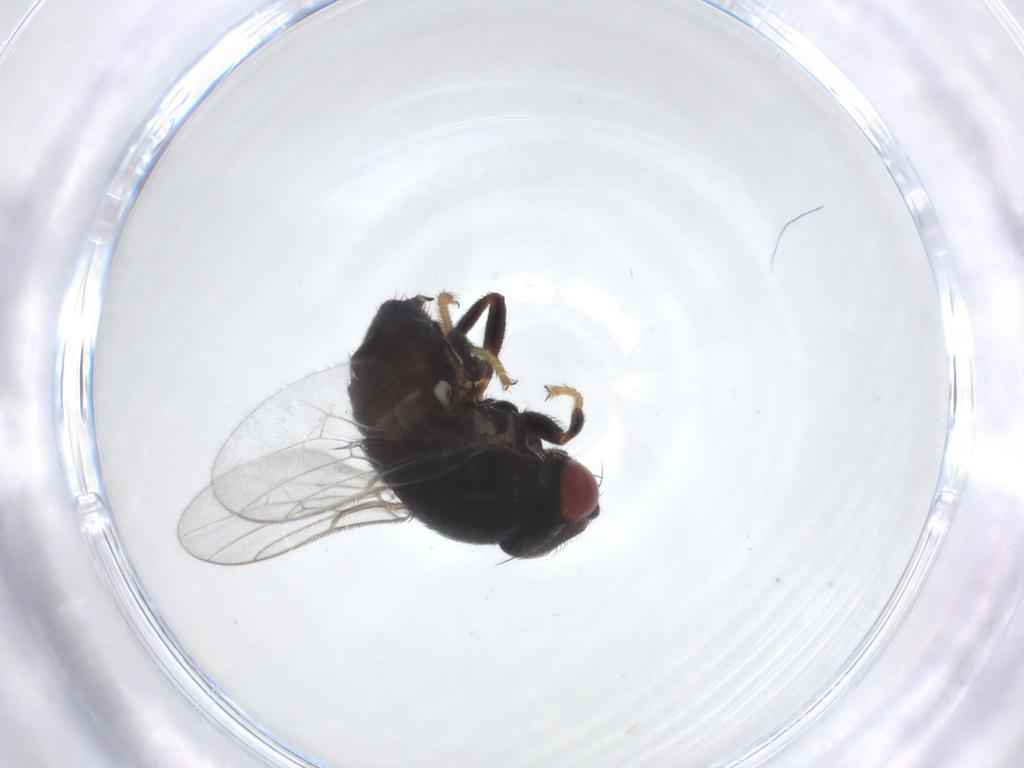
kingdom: Animalia
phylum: Arthropoda
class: Insecta
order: Diptera
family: Chloropidae
